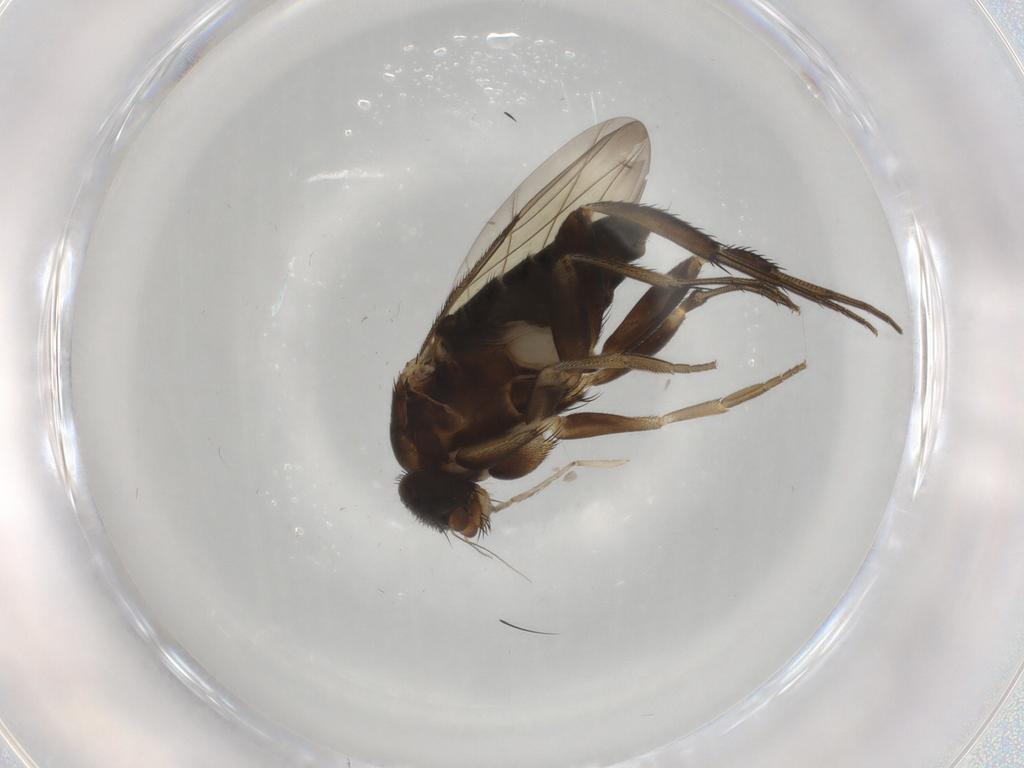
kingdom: Animalia
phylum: Arthropoda
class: Insecta
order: Diptera
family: Phoridae
